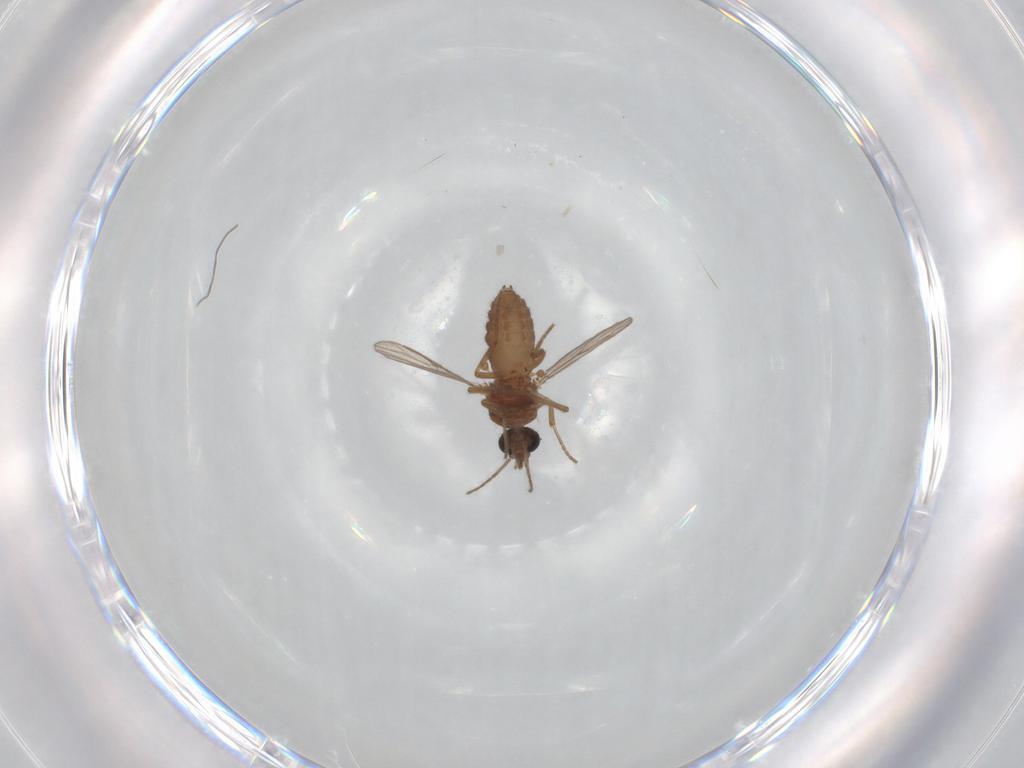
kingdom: Animalia
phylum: Arthropoda
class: Insecta
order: Diptera
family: Ceratopogonidae
